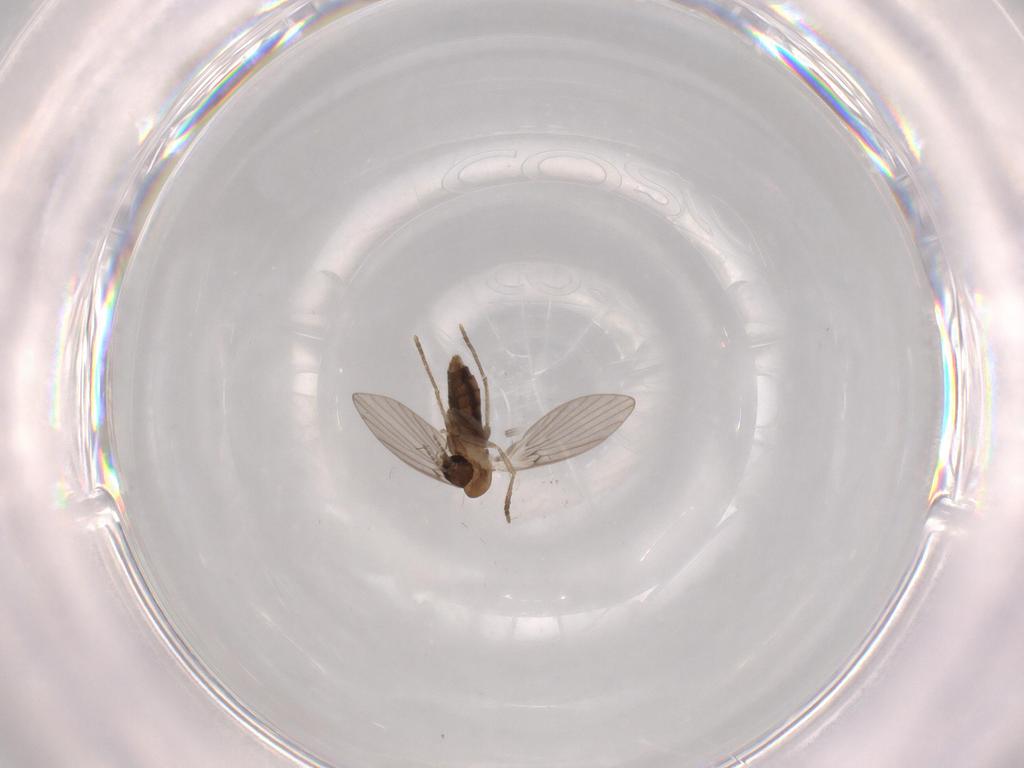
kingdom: Animalia
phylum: Arthropoda
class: Insecta
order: Diptera
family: Psychodidae
